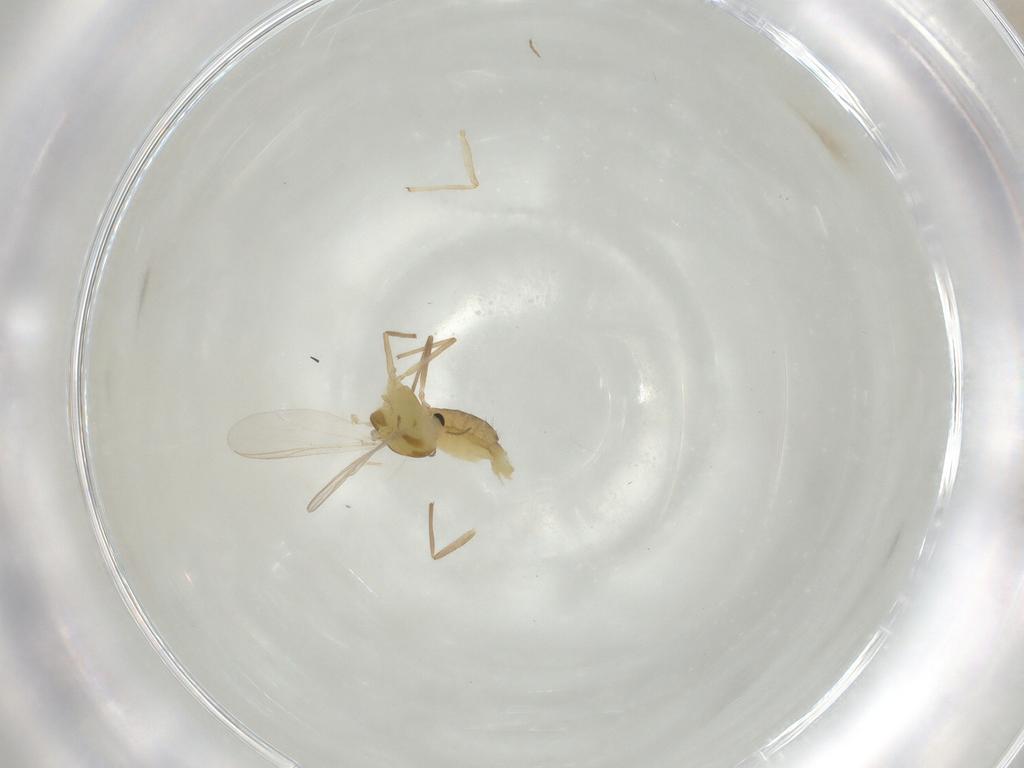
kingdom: Animalia
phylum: Arthropoda
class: Insecta
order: Diptera
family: Chironomidae
